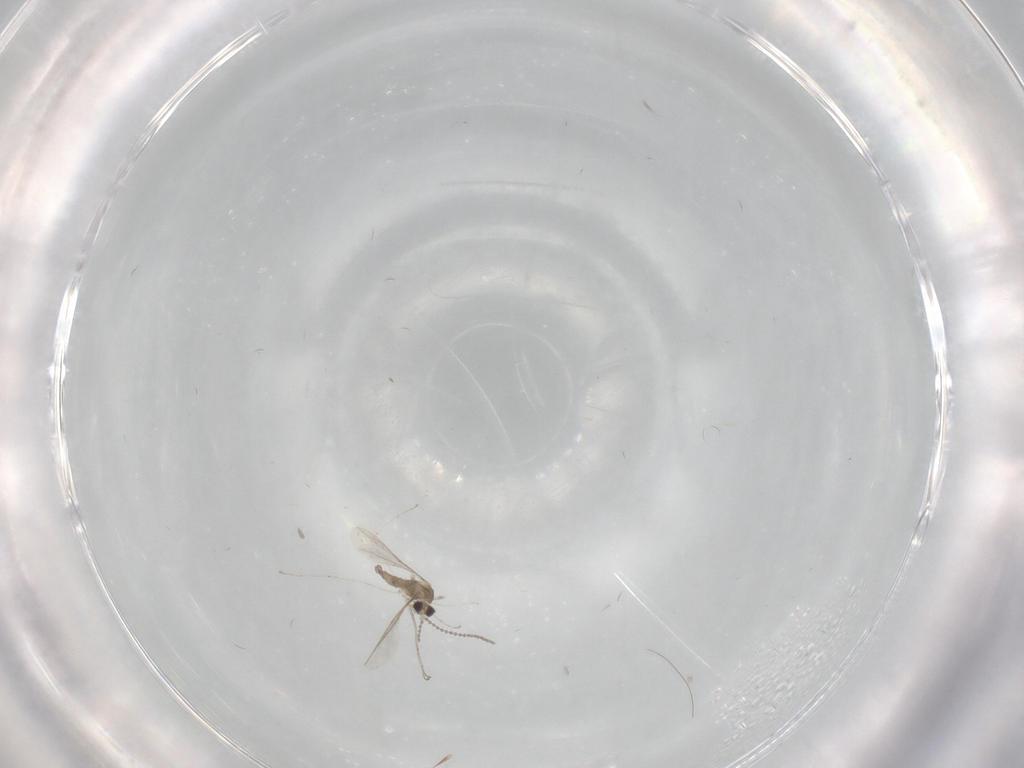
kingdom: Animalia
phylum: Arthropoda
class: Insecta
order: Diptera
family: Cecidomyiidae
